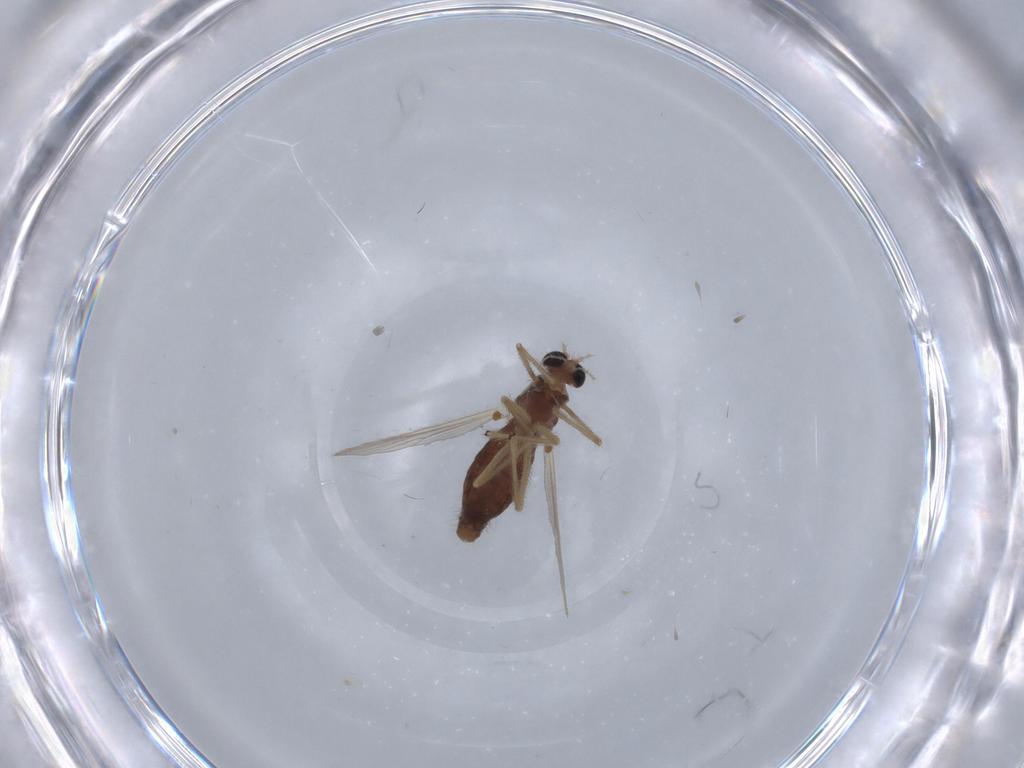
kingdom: Animalia
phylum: Arthropoda
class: Insecta
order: Diptera
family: Chironomidae
